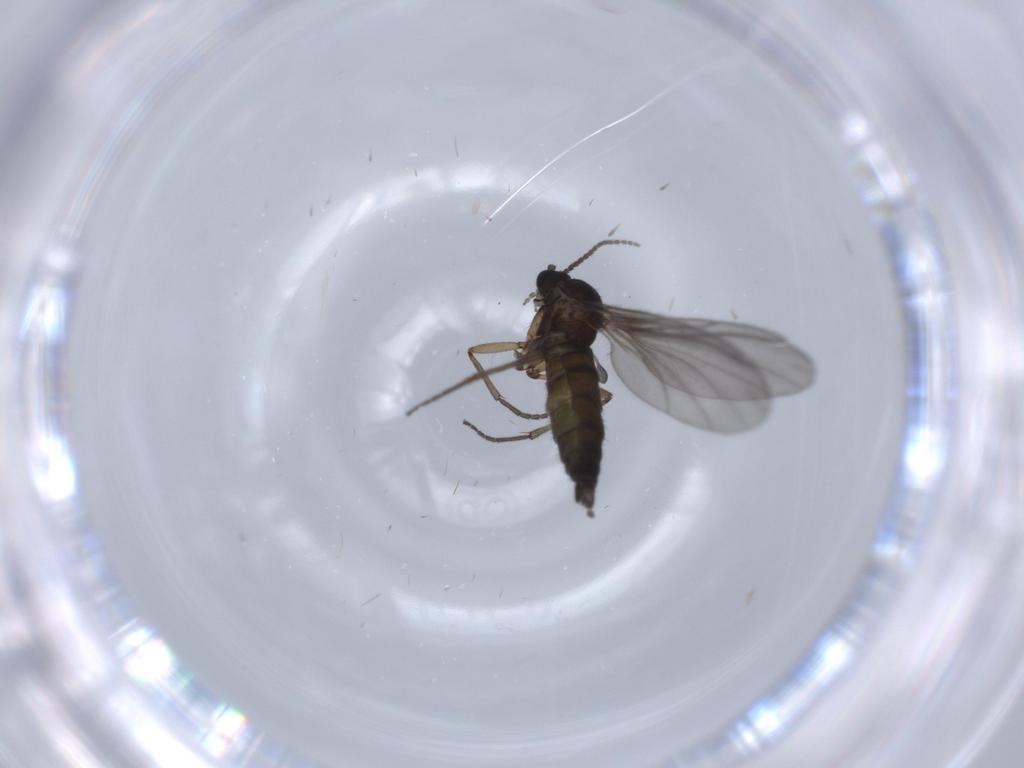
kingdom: Animalia
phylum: Arthropoda
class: Insecta
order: Diptera
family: Sciaridae
